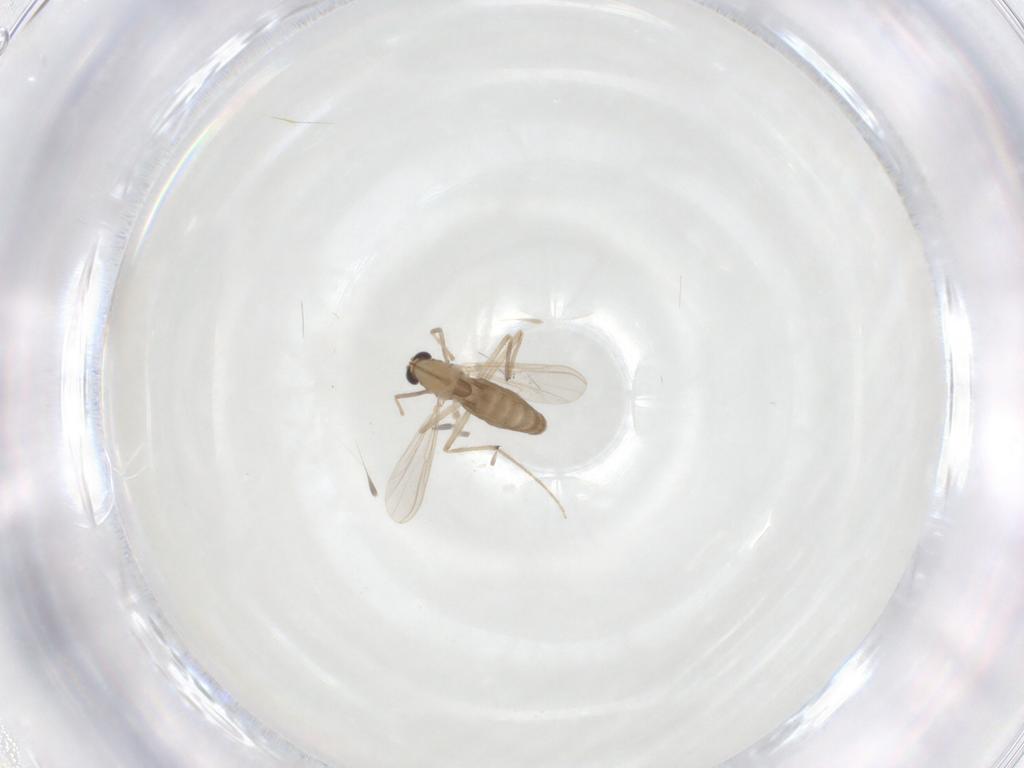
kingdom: Animalia
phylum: Arthropoda
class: Insecta
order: Diptera
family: Chironomidae
